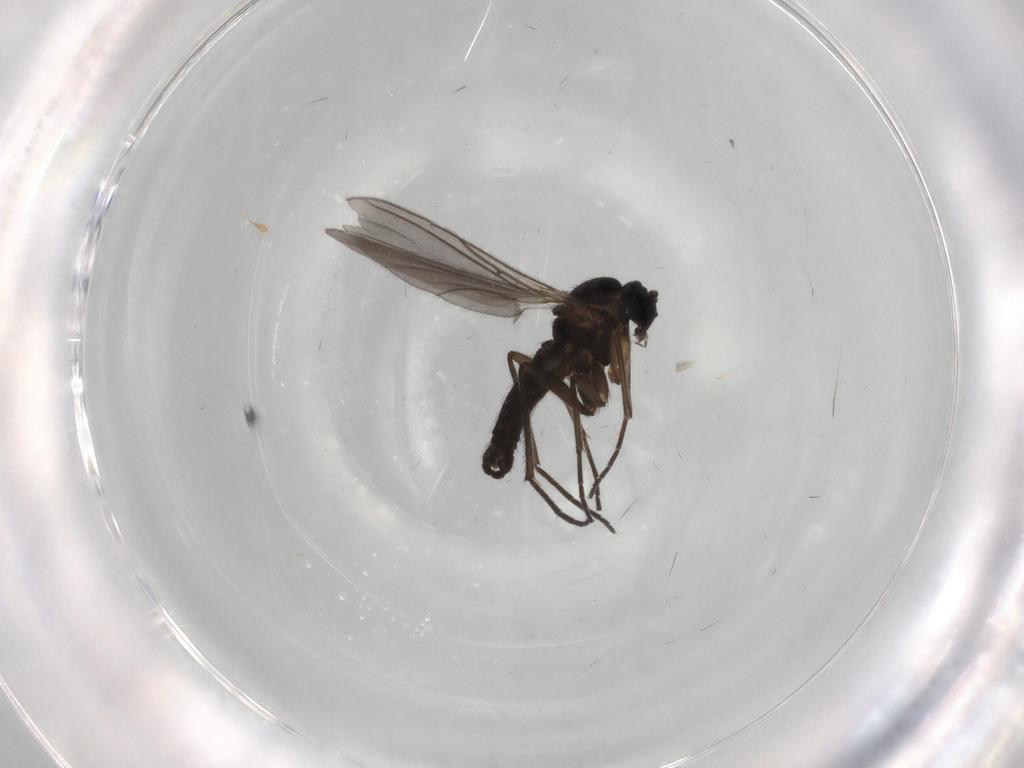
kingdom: Animalia
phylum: Arthropoda
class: Insecta
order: Diptera
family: Sciaridae
